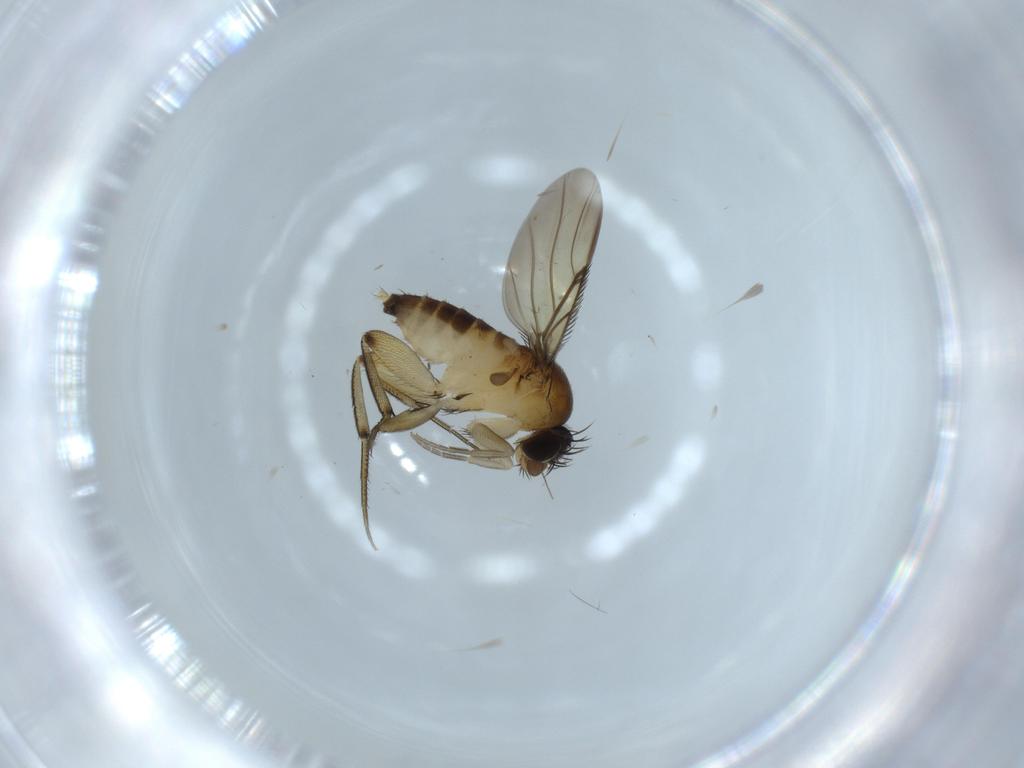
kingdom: Animalia
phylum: Arthropoda
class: Insecta
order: Diptera
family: Phoridae
